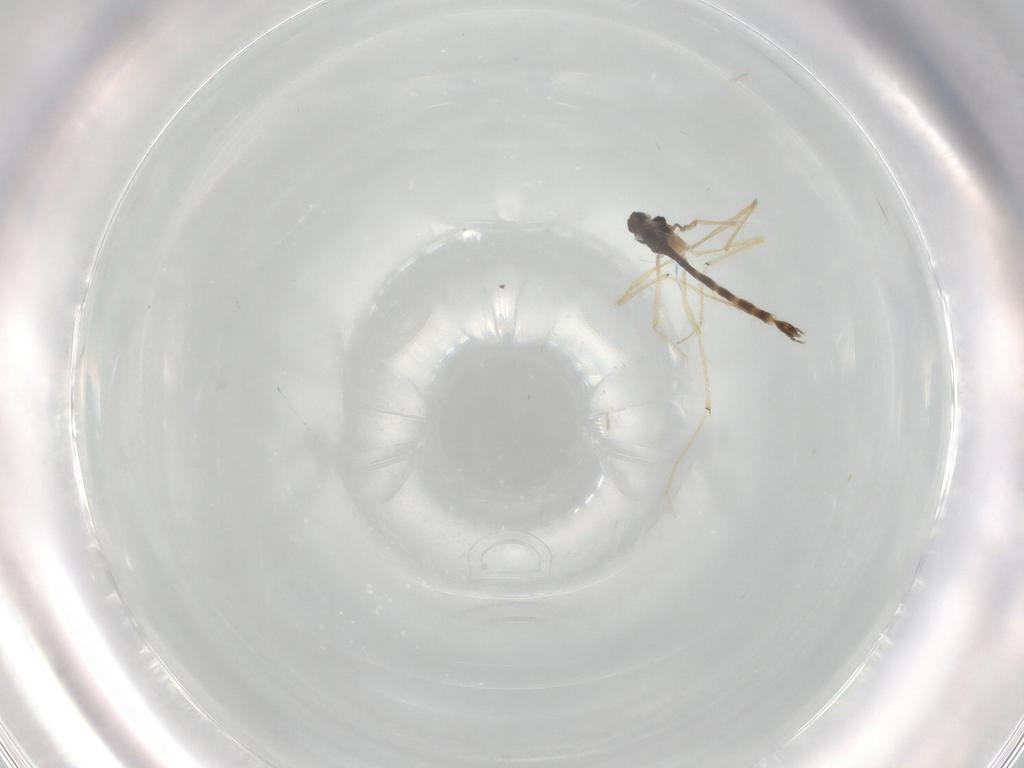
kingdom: Animalia
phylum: Arthropoda
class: Insecta
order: Diptera
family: Chironomidae
